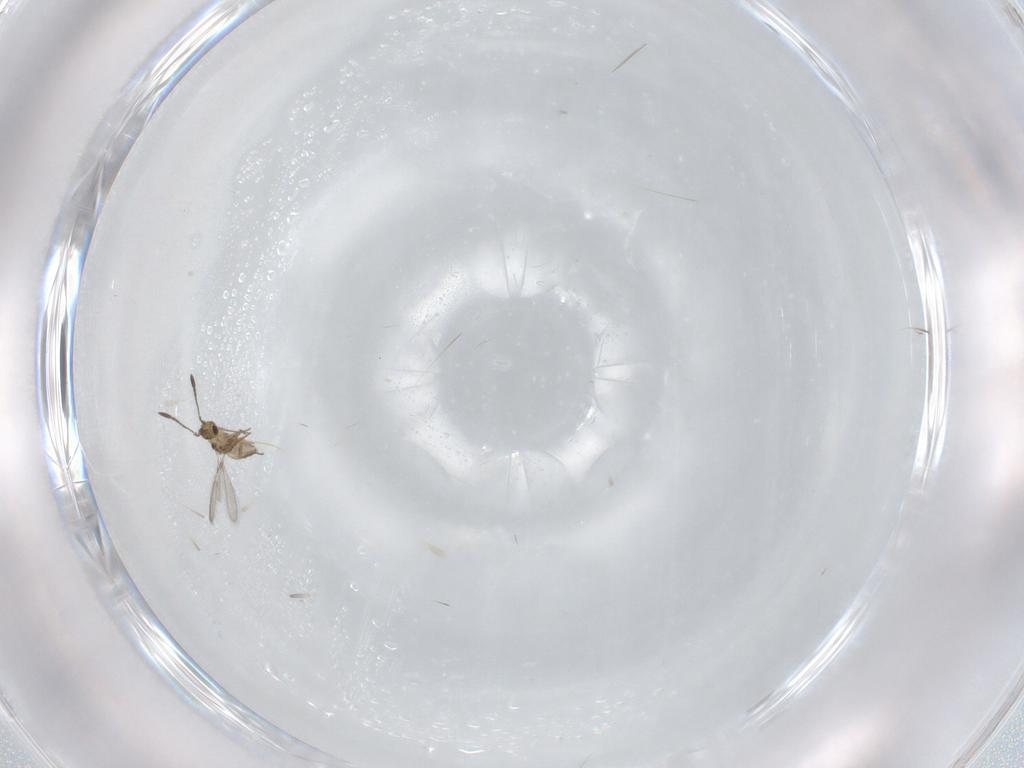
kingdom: Animalia
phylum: Arthropoda
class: Insecta
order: Hymenoptera
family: Mymaridae
